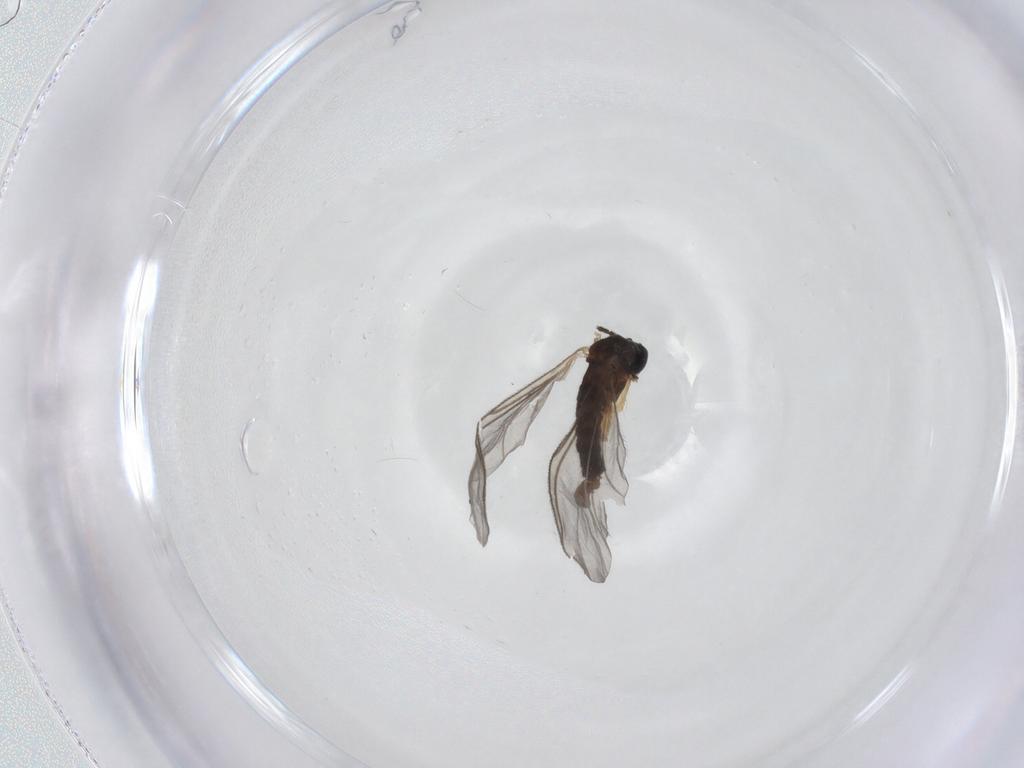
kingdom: Animalia
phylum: Arthropoda
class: Insecta
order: Diptera
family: Sciaridae
